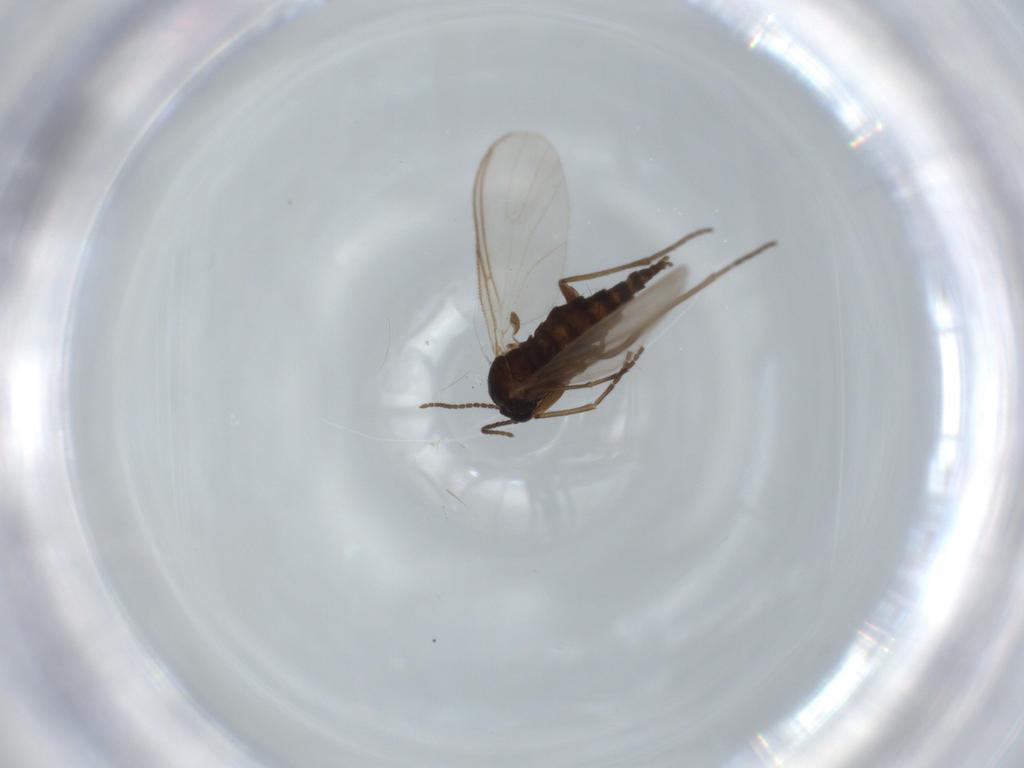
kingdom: Animalia
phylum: Arthropoda
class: Insecta
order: Diptera
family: Sciaridae
